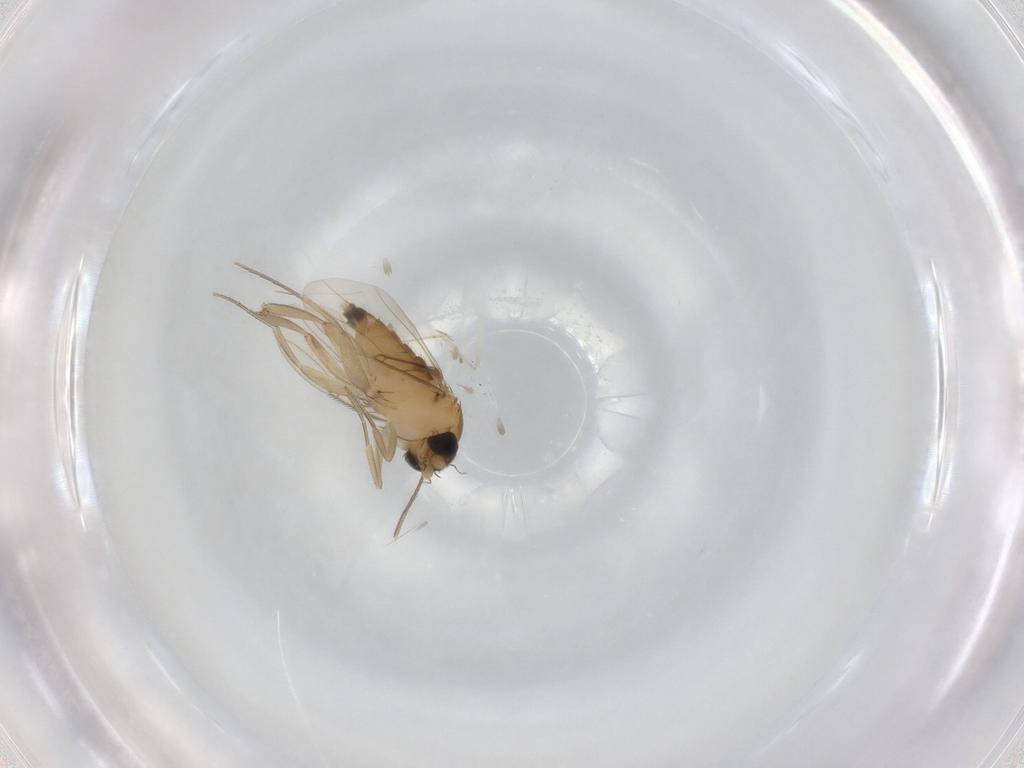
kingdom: Animalia
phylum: Arthropoda
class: Insecta
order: Diptera
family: Phoridae
